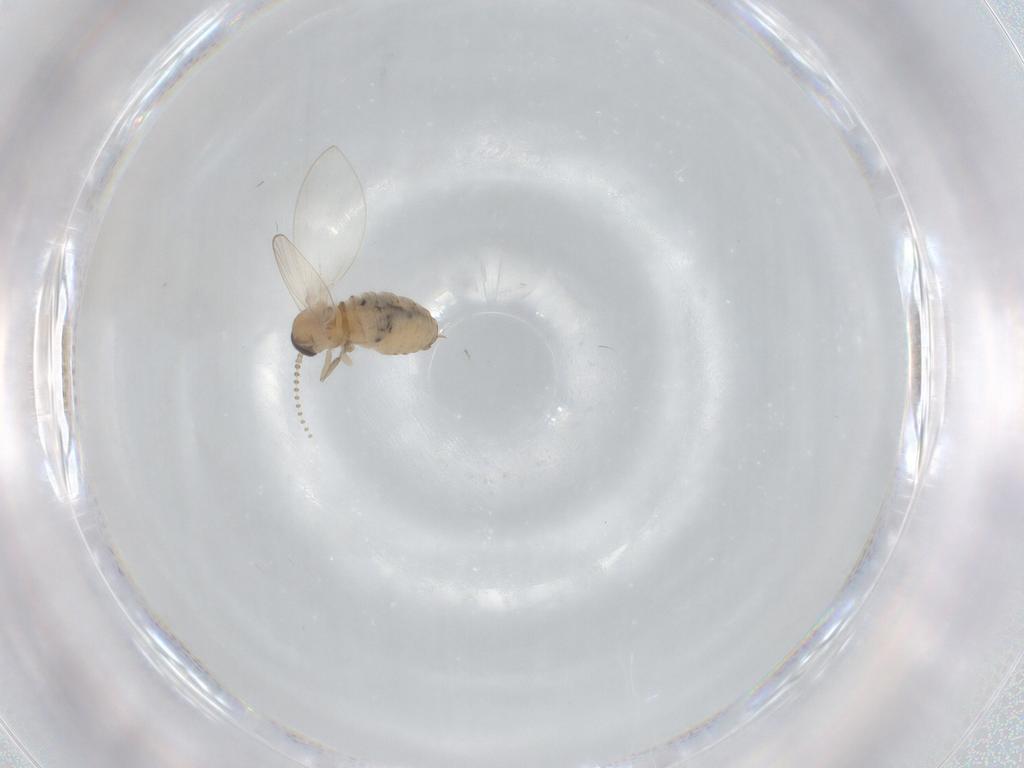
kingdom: Animalia
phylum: Arthropoda
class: Insecta
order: Diptera
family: Psychodidae
